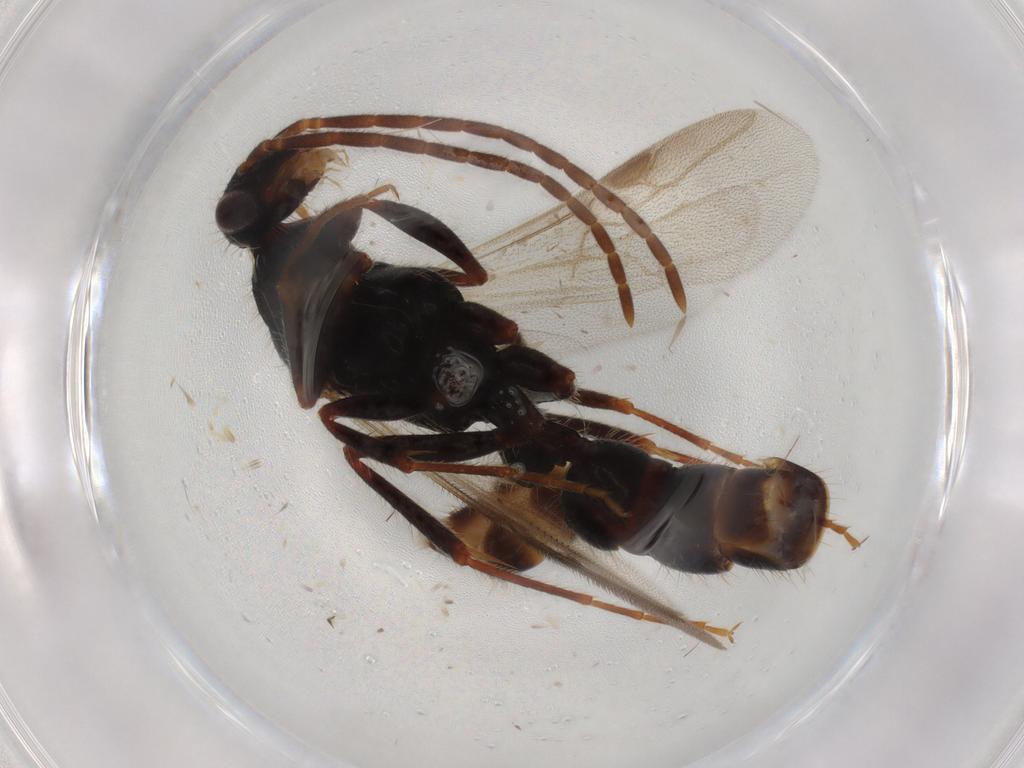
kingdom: Animalia
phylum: Arthropoda
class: Insecta
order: Hymenoptera
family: Formicidae
